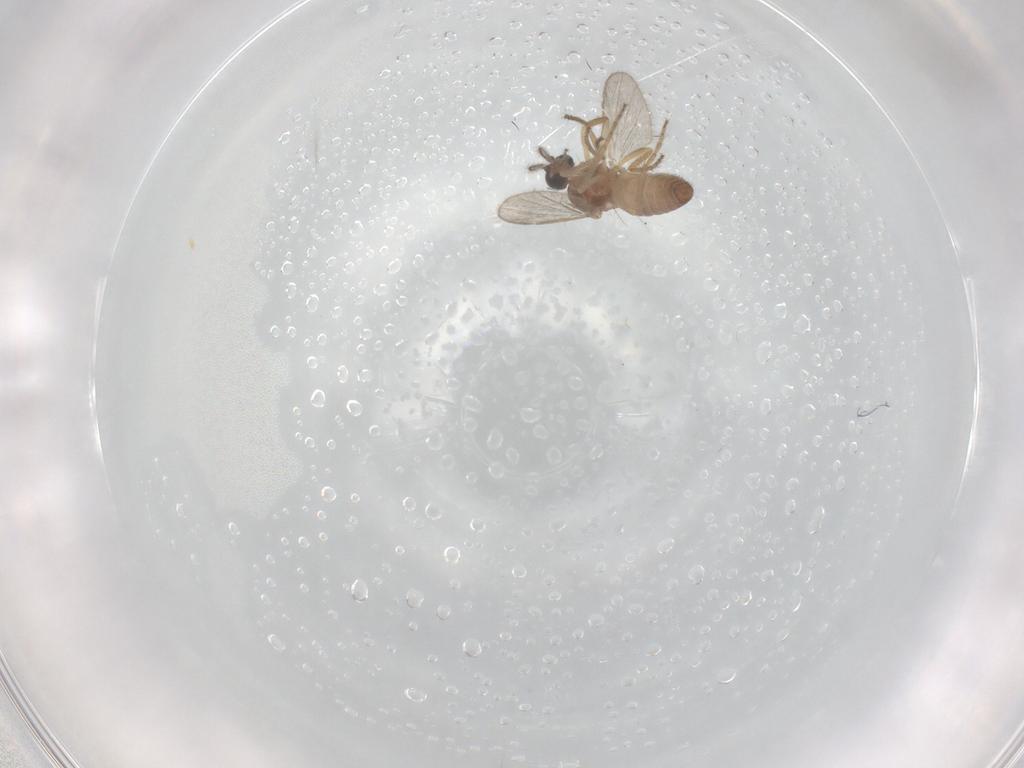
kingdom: Animalia
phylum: Arthropoda
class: Insecta
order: Diptera
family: Ceratopogonidae
